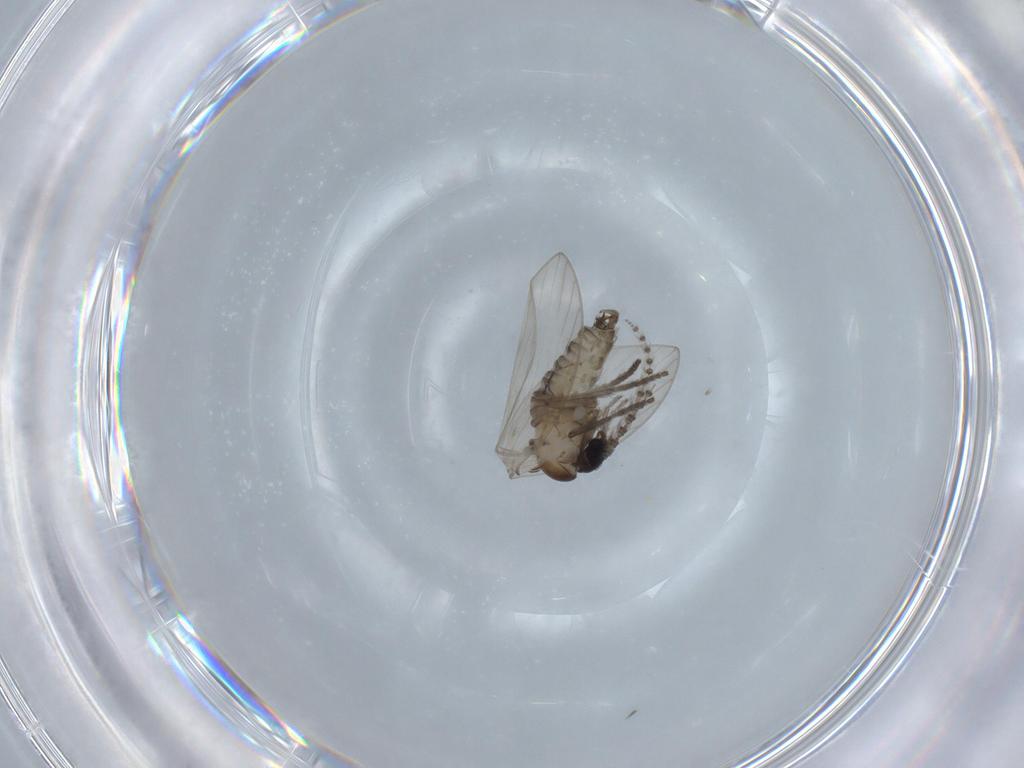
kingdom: Animalia
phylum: Arthropoda
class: Insecta
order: Diptera
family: Psychodidae
